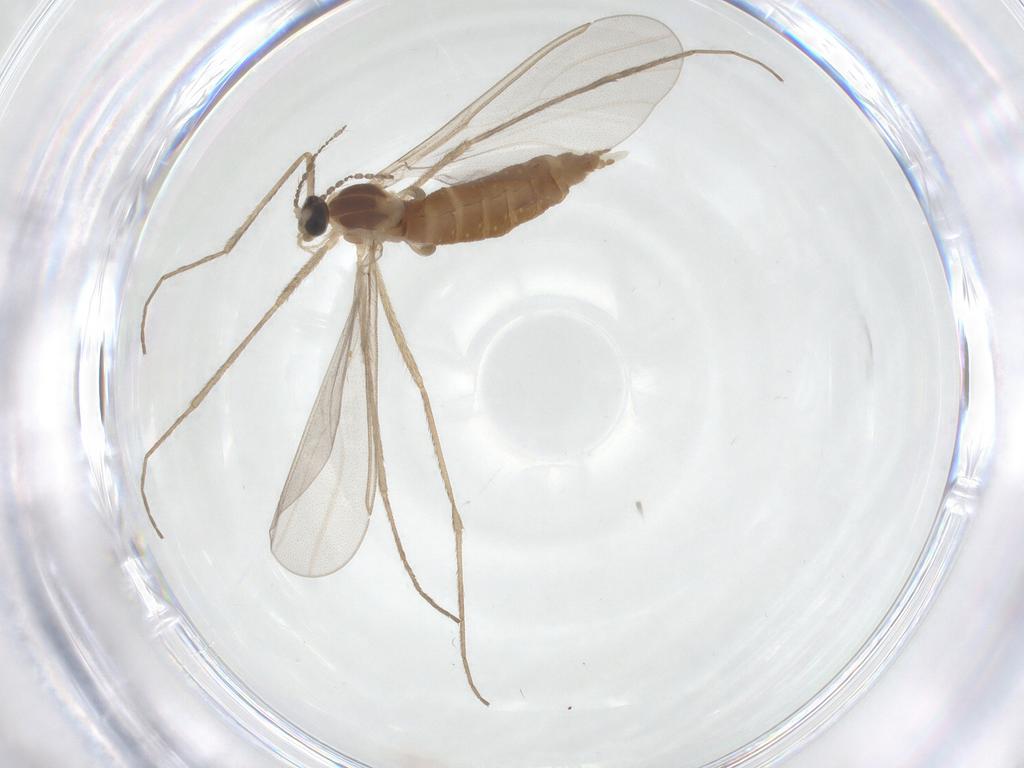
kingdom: Animalia
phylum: Arthropoda
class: Insecta
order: Diptera
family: Cecidomyiidae
